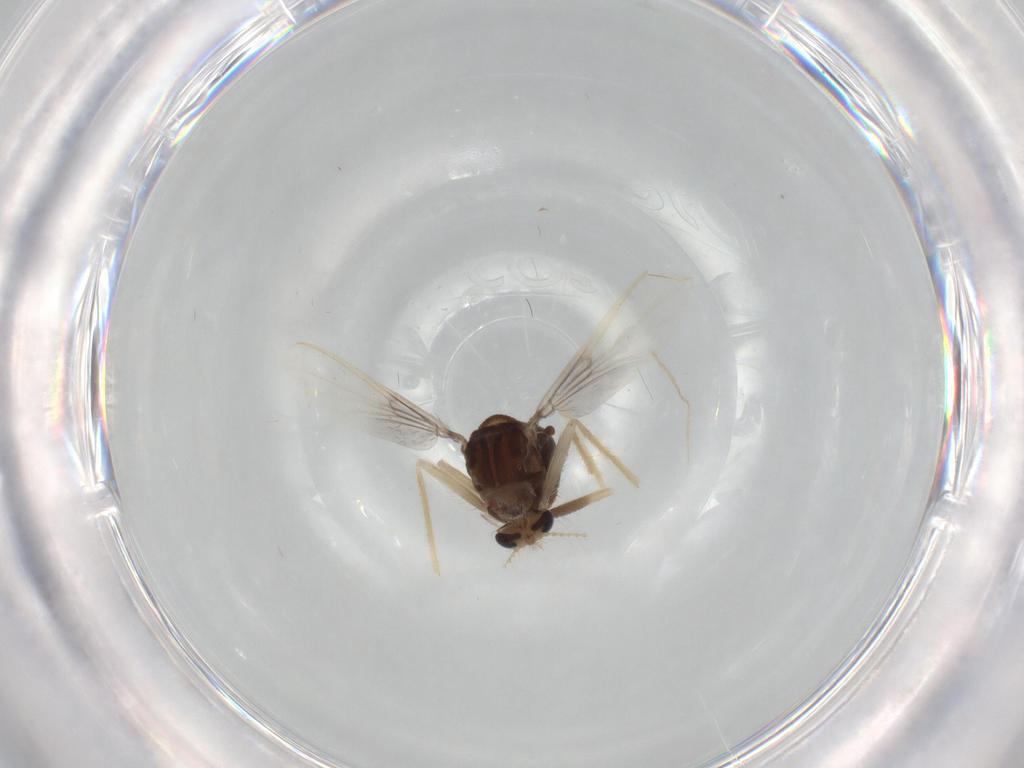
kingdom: Animalia
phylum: Arthropoda
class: Insecta
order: Diptera
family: Chironomidae
